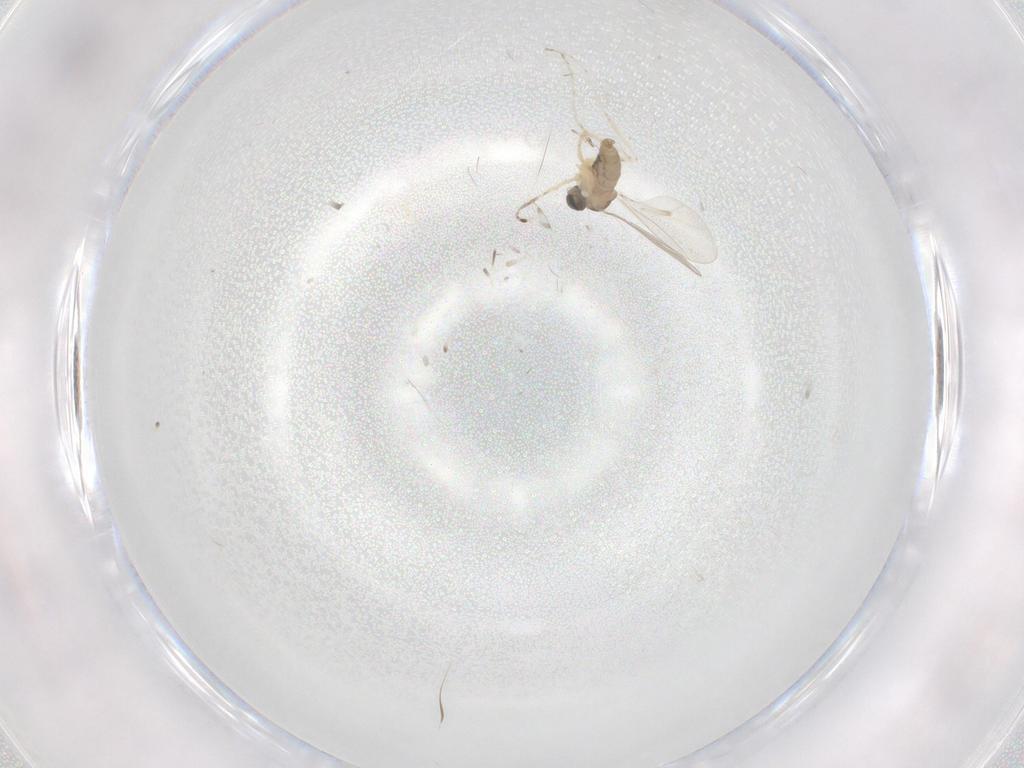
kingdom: Animalia
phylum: Arthropoda
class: Insecta
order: Diptera
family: Cecidomyiidae
